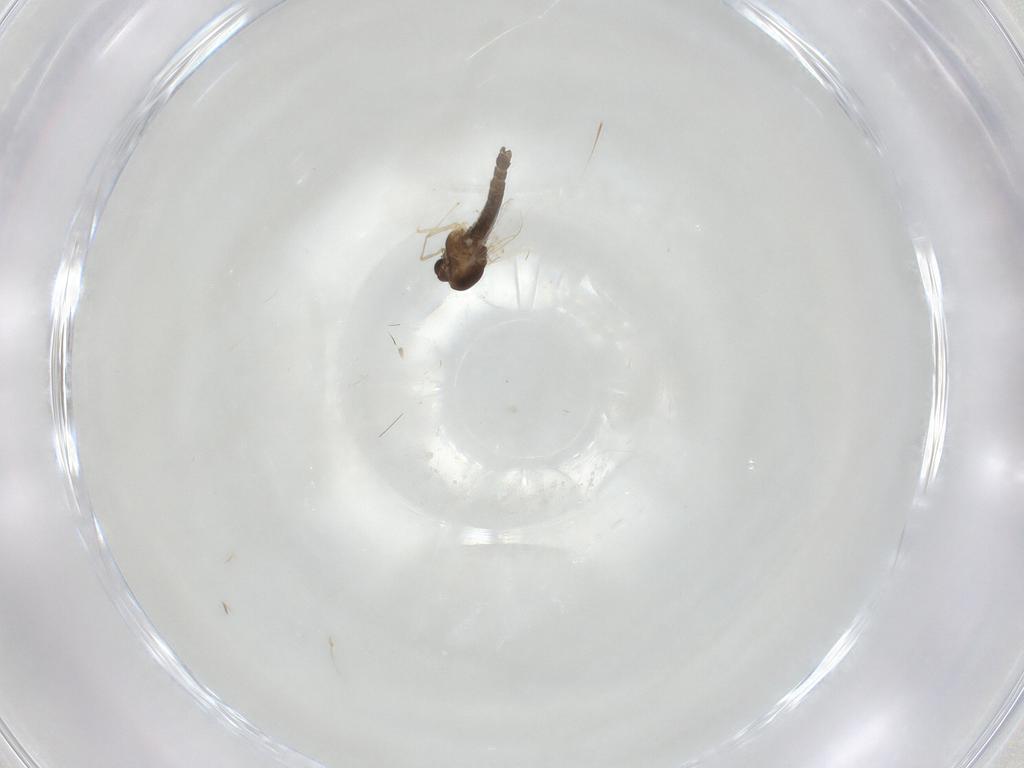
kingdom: Animalia
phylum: Arthropoda
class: Insecta
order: Diptera
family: Chironomidae
